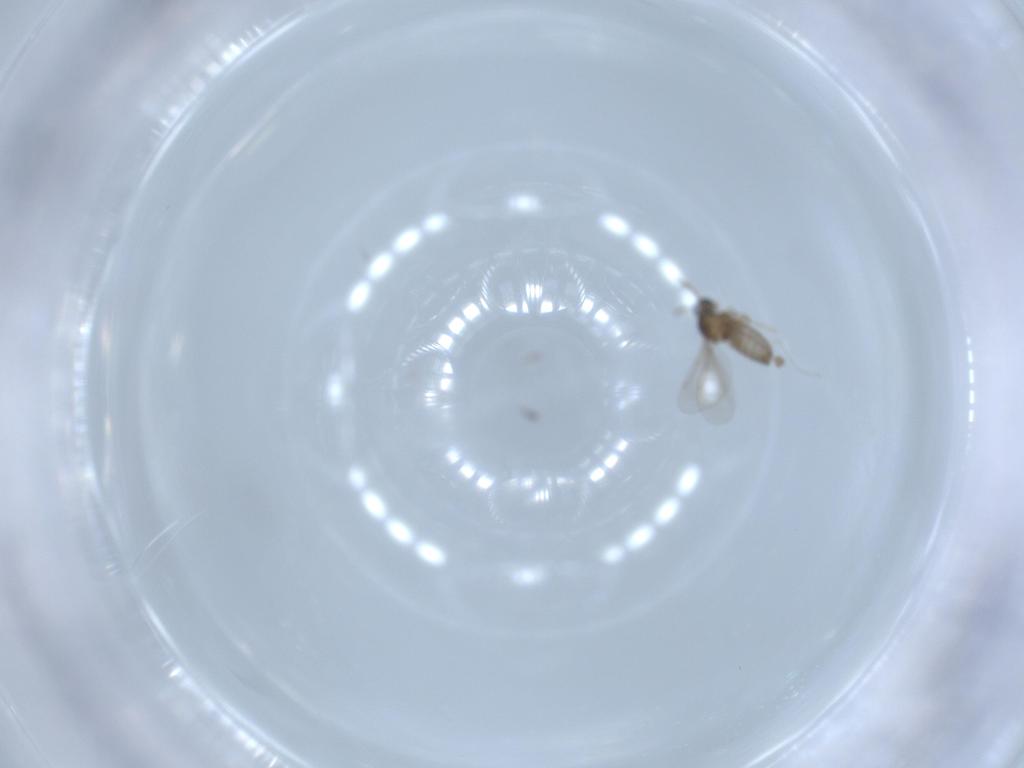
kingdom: Animalia
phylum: Arthropoda
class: Insecta
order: Diptera
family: Cecidomyiidae
